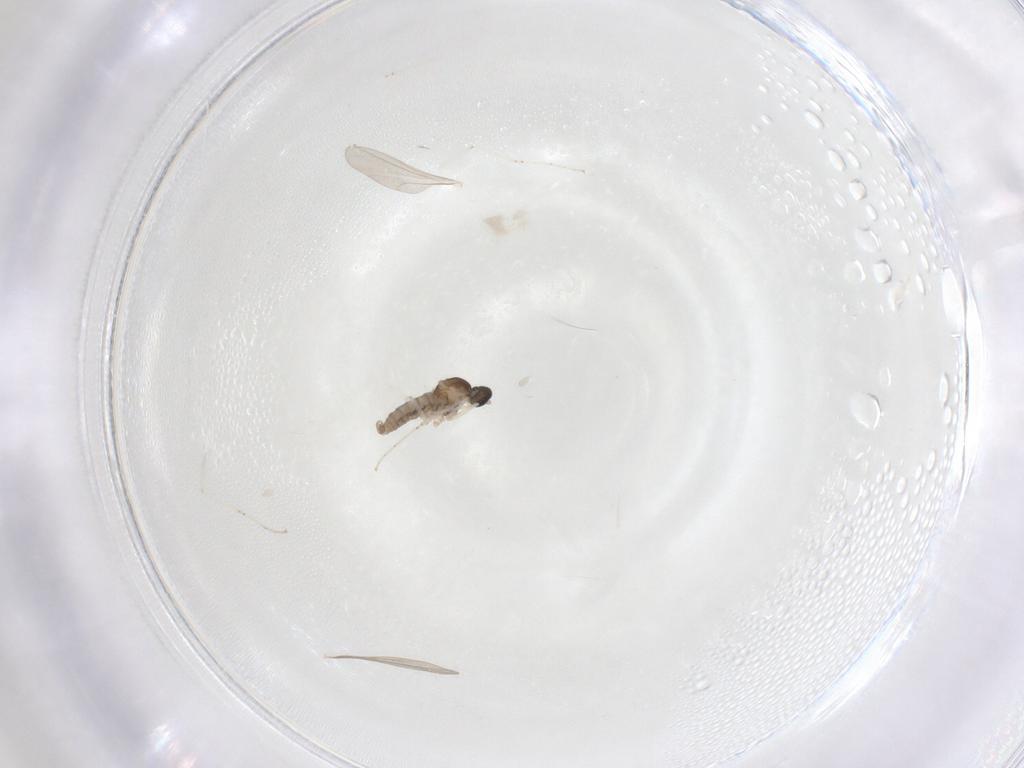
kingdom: Animalia
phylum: Arthropoda
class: Insecta
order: Diptera
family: Cecidomyiidae
